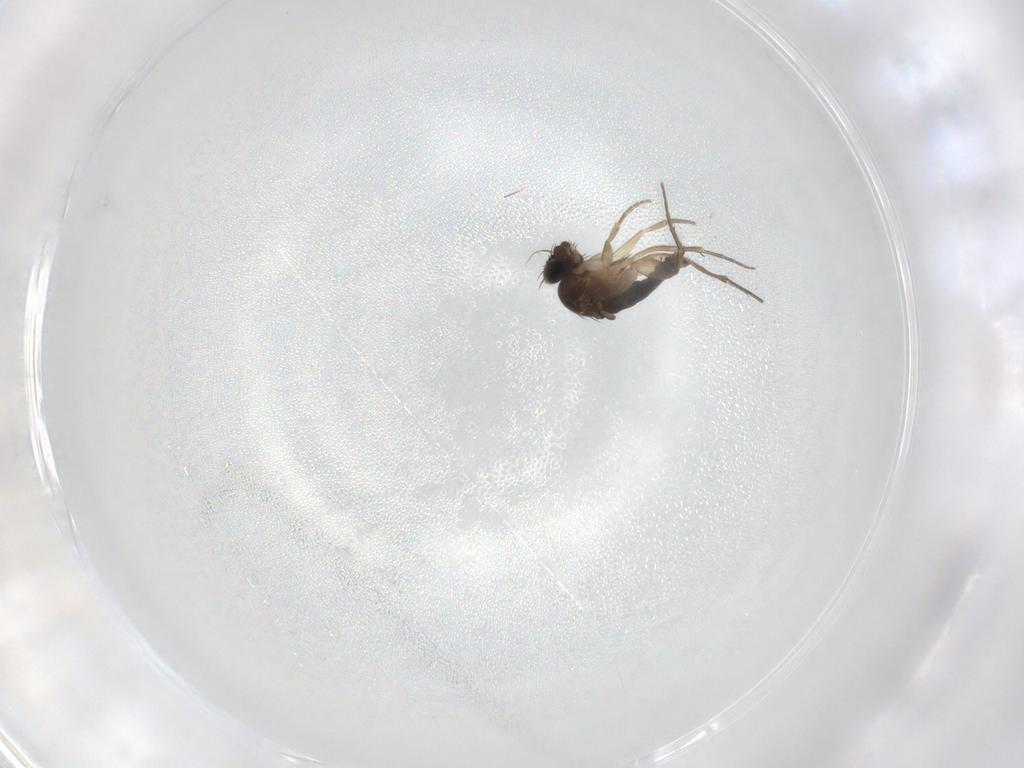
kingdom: Animalia
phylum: Arthropoda
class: Insecta
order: Diptera
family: Phoridae
